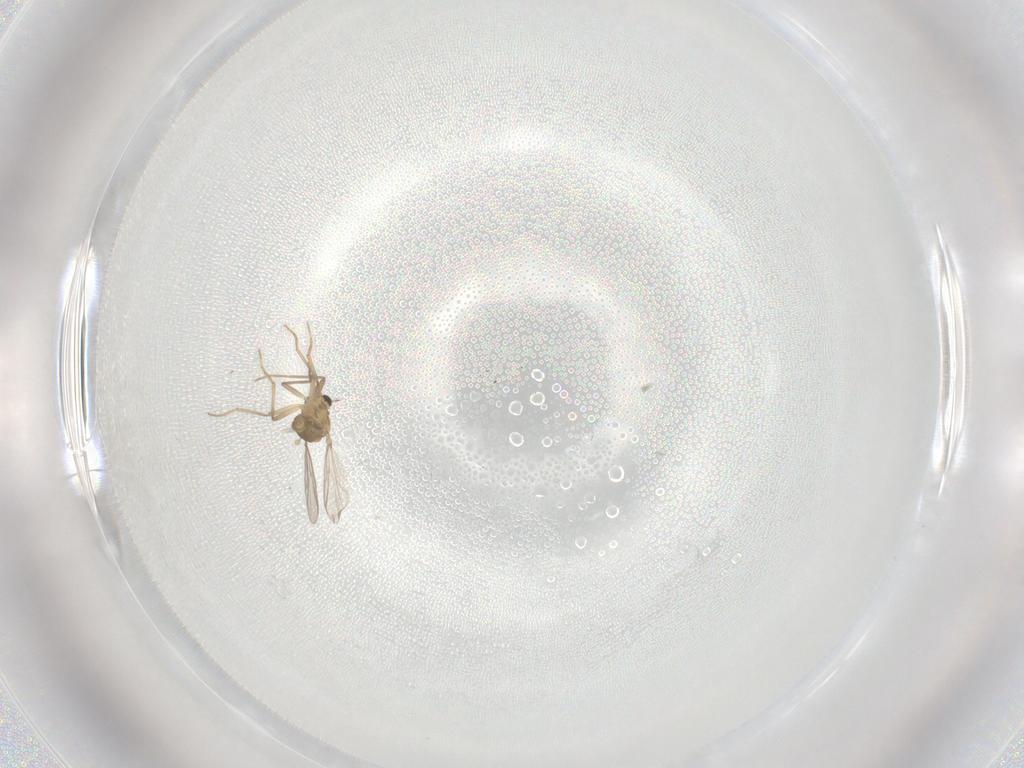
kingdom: Animalia
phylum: Arthropoda
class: Insecta
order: Diptera
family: Chironomidae
